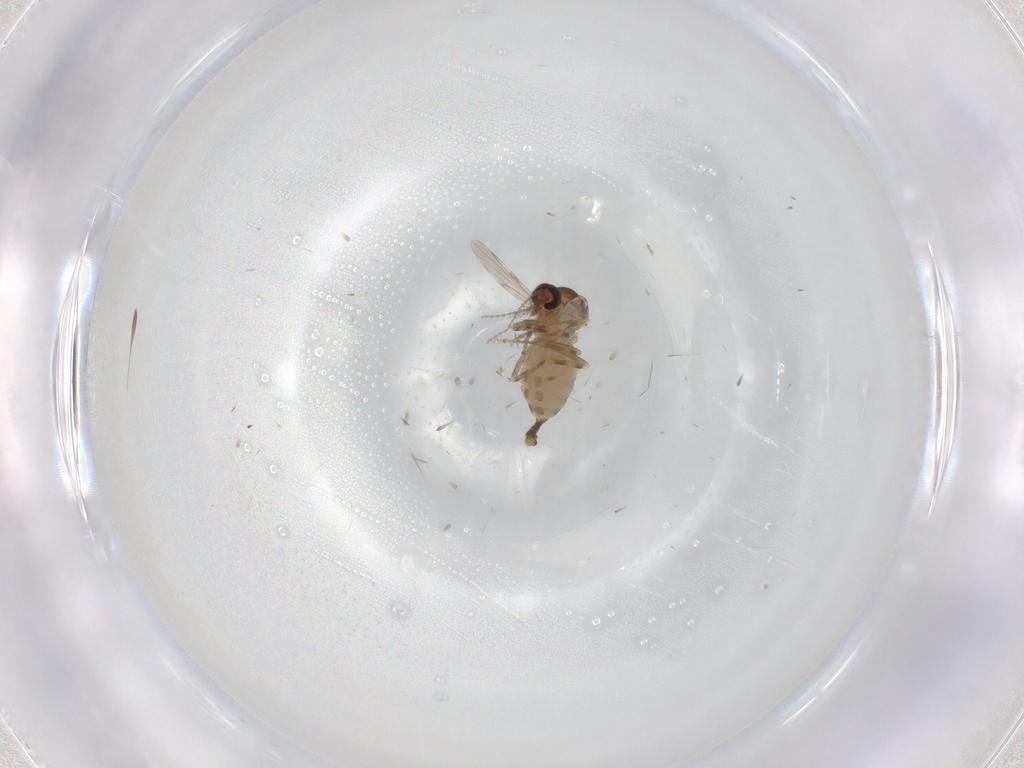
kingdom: Animalia
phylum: Arthropoda
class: Insecta
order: Diptera
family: Ceratopogonidae
